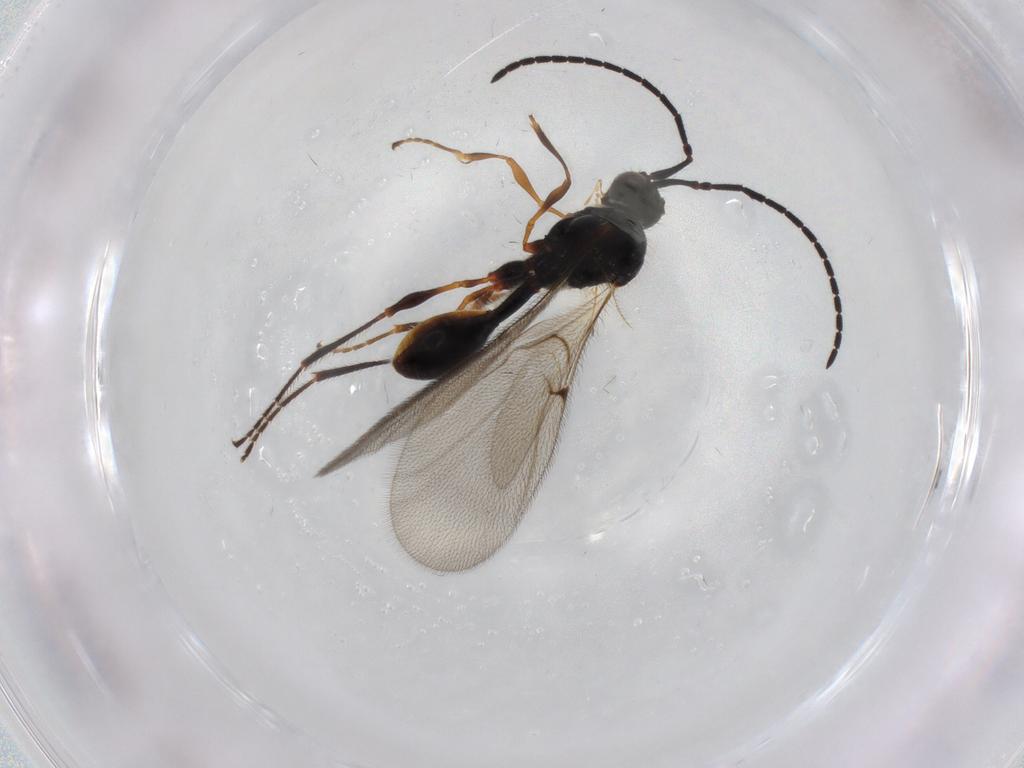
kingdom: Animalia
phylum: Arthropoda
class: Insecta
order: Hymenoptera
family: Diapriidae
